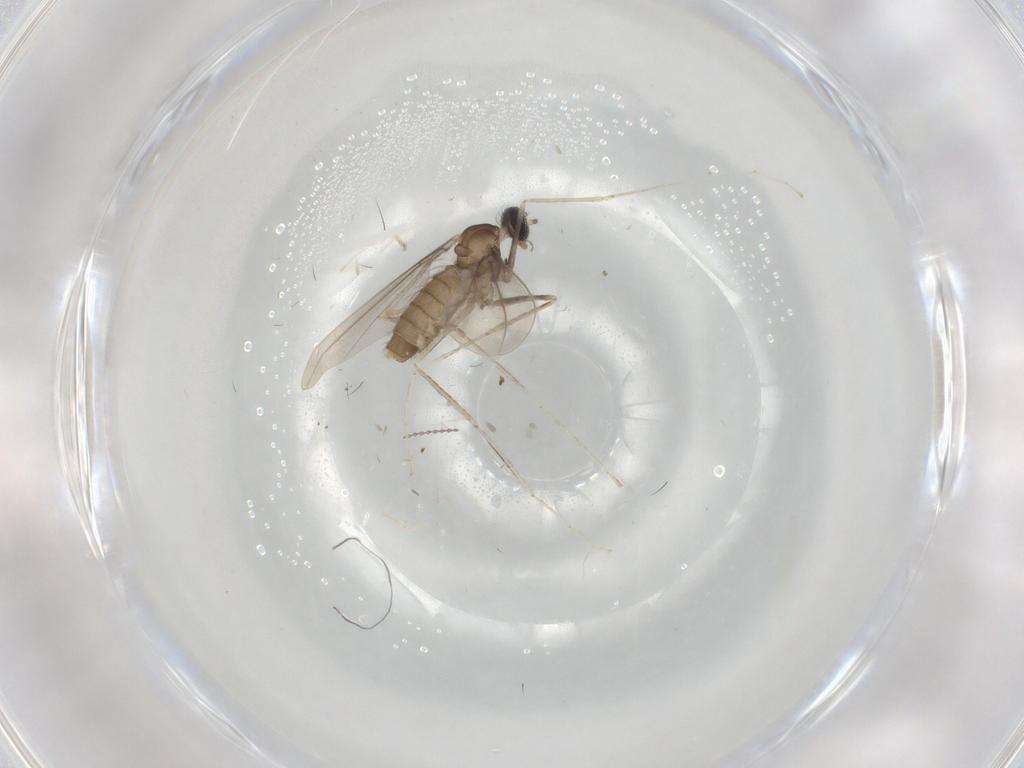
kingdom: Animalia
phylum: Arthropoda
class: Insecta
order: Diptera
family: Cecidomyiidae
